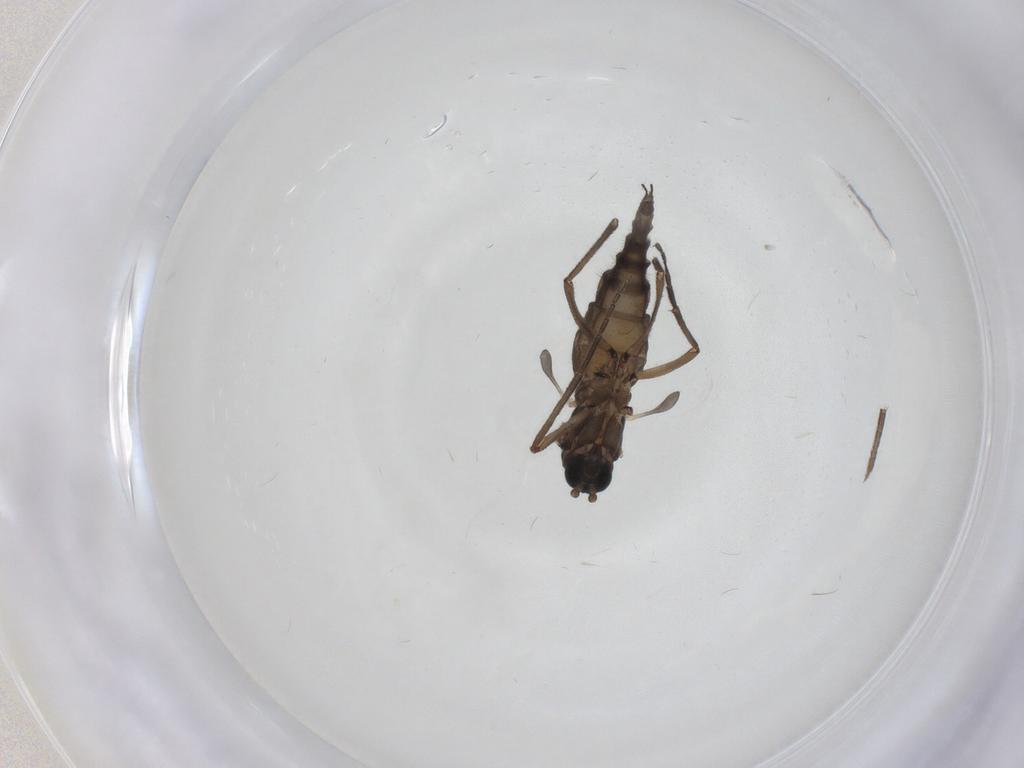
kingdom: Animalia
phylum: Arthropoda
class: Insecta
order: Diptera
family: Sciaridae
